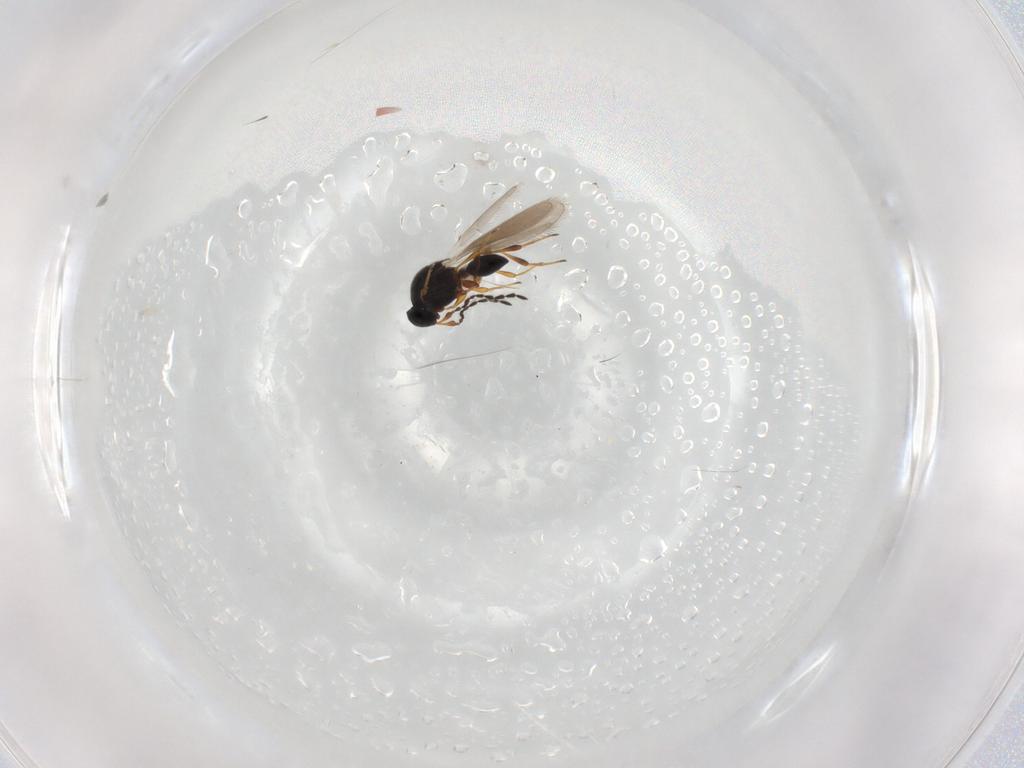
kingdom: Animalia
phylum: Arthropoda
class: Insecta
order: Hymenoptera
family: Platygastridae
